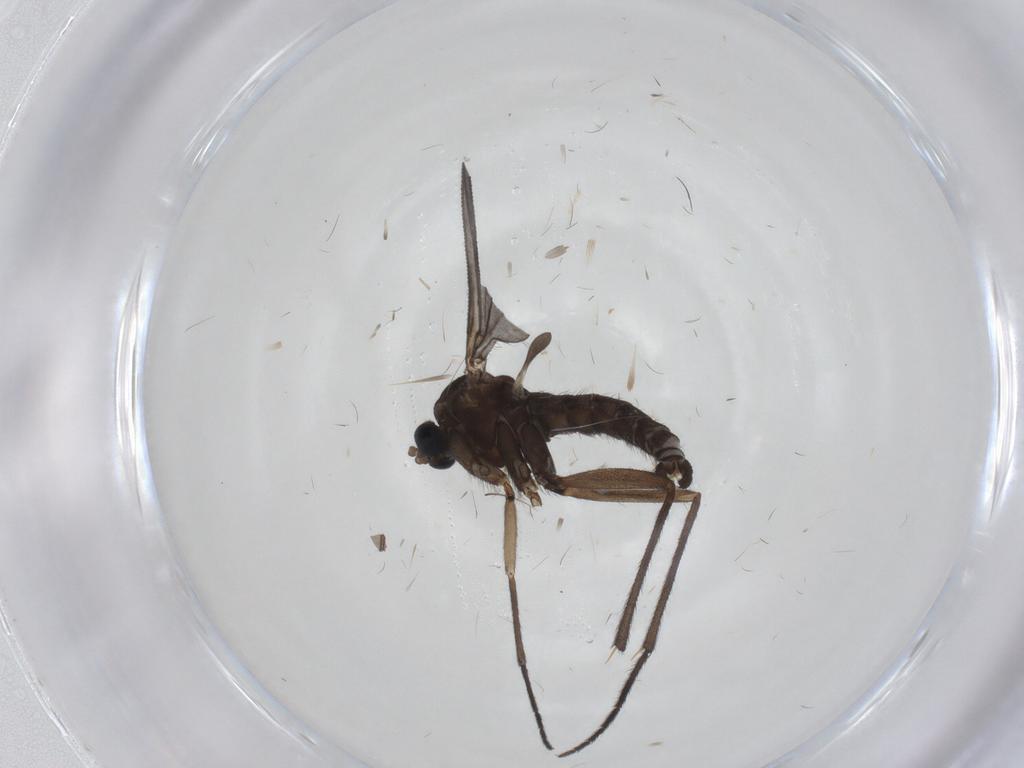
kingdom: Animalia
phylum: Arthropoda
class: Insecta
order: Diptera
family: Sciaridae
